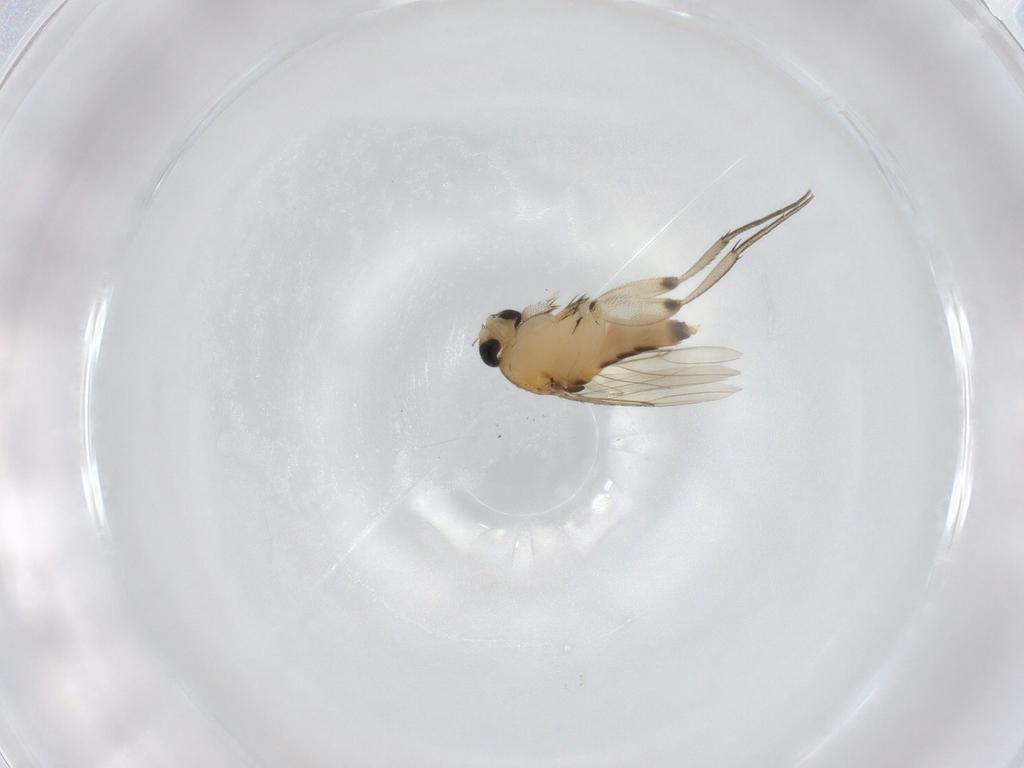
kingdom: Animalia
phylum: Arthropoda
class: Insecta
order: Diptera
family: Phoridae
